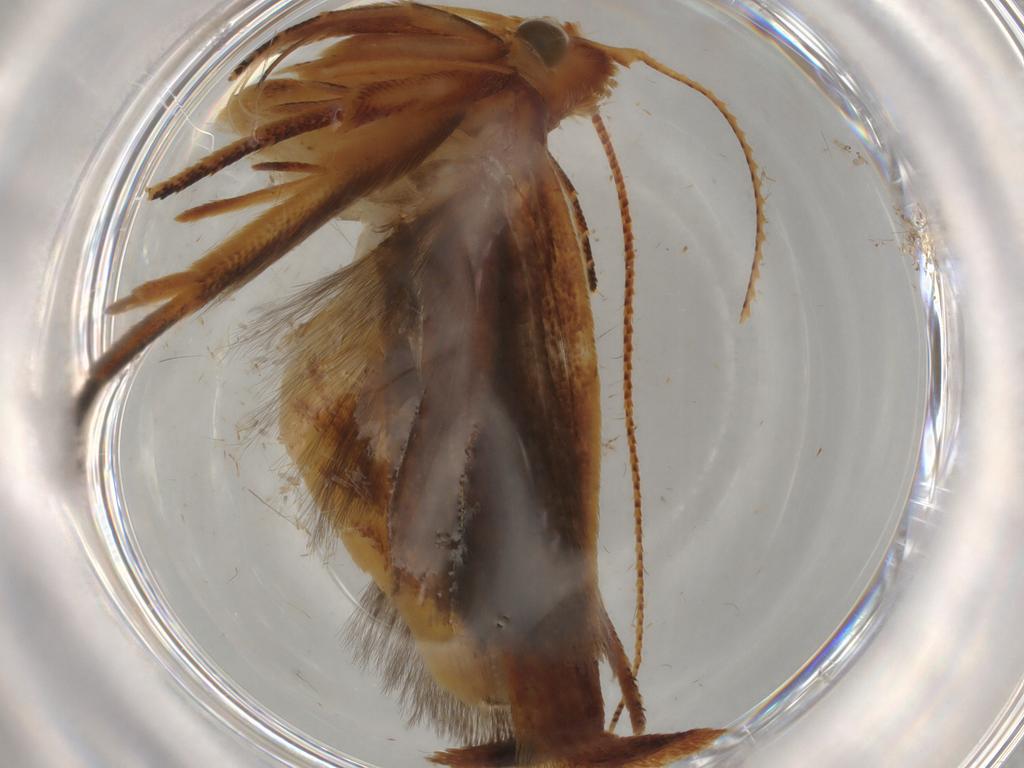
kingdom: Animalia
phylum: Arthropoda
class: Insecta
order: Lepidoptera
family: Gelechiidae
